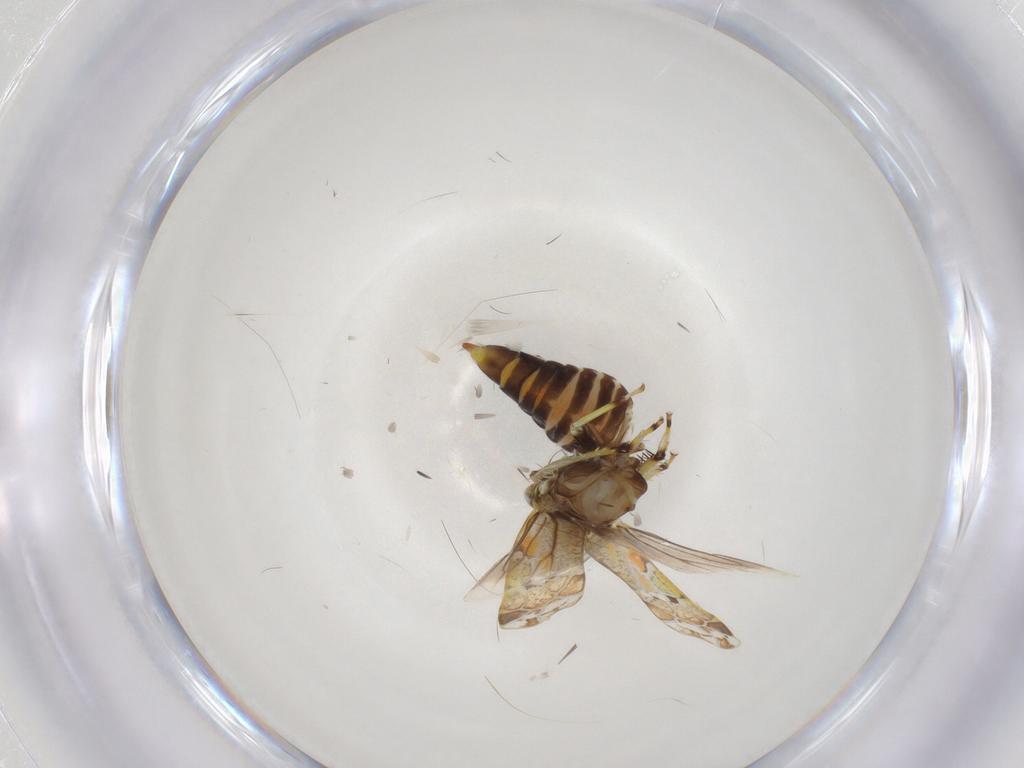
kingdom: Animalia
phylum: Arthropoda
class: Insecta
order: Hemiptera
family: Cicadellidae
